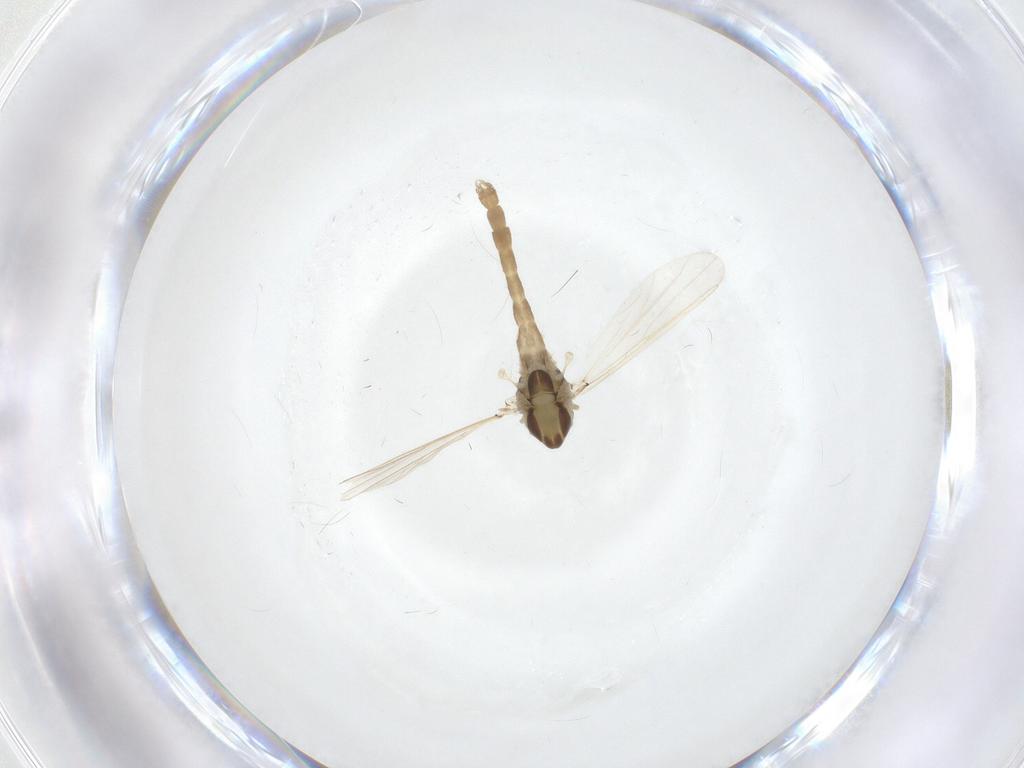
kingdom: Animalia
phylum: Arthropoda
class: Insecta
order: Diptera
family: Chironomidae
